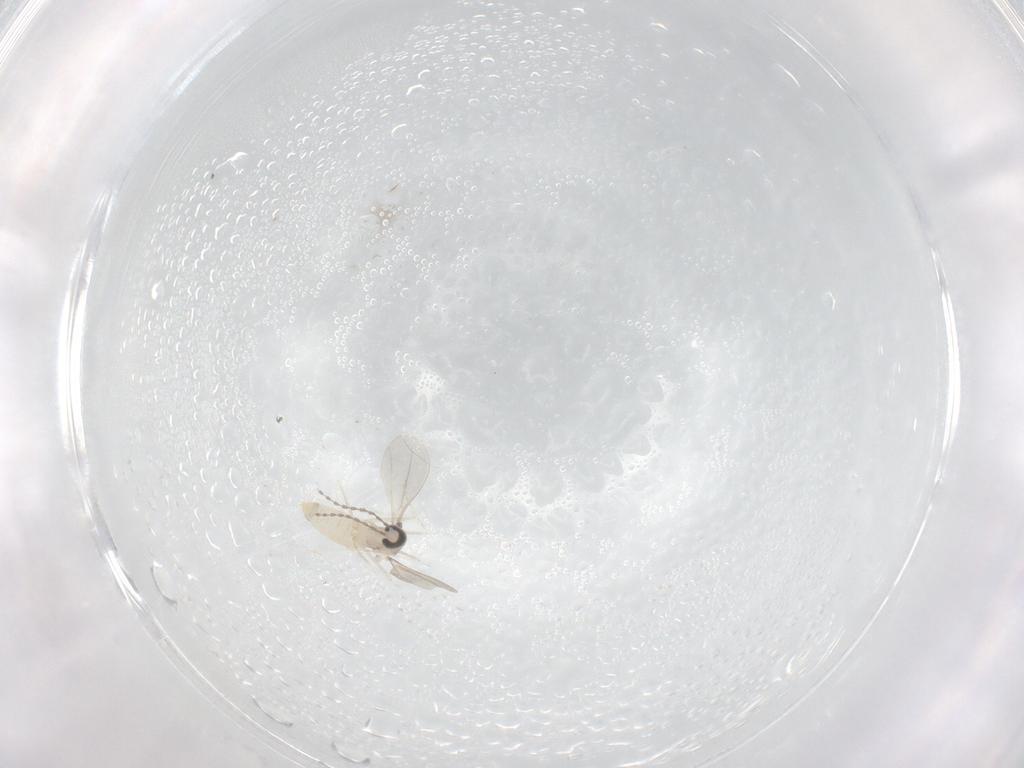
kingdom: Animalia
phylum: Arthropoda
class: Insecta
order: Diptera
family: Cecidomyiidae
